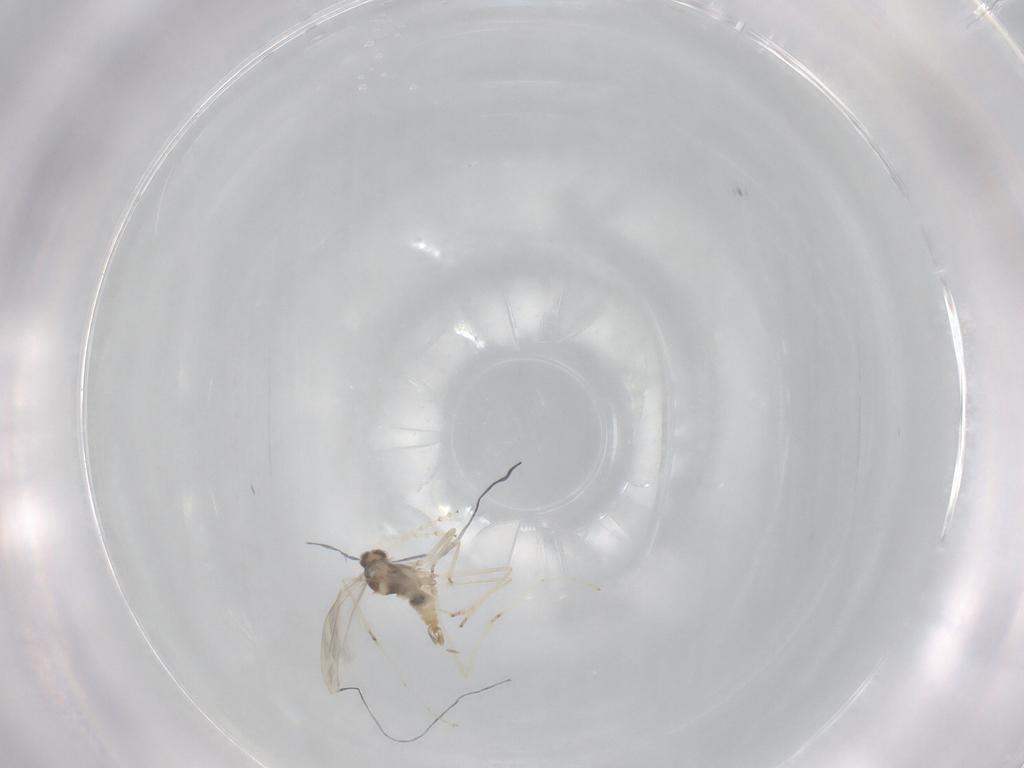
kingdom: Animalia
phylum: Arthropoda
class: Insecta
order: Diptera
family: Cecidomyiidae
